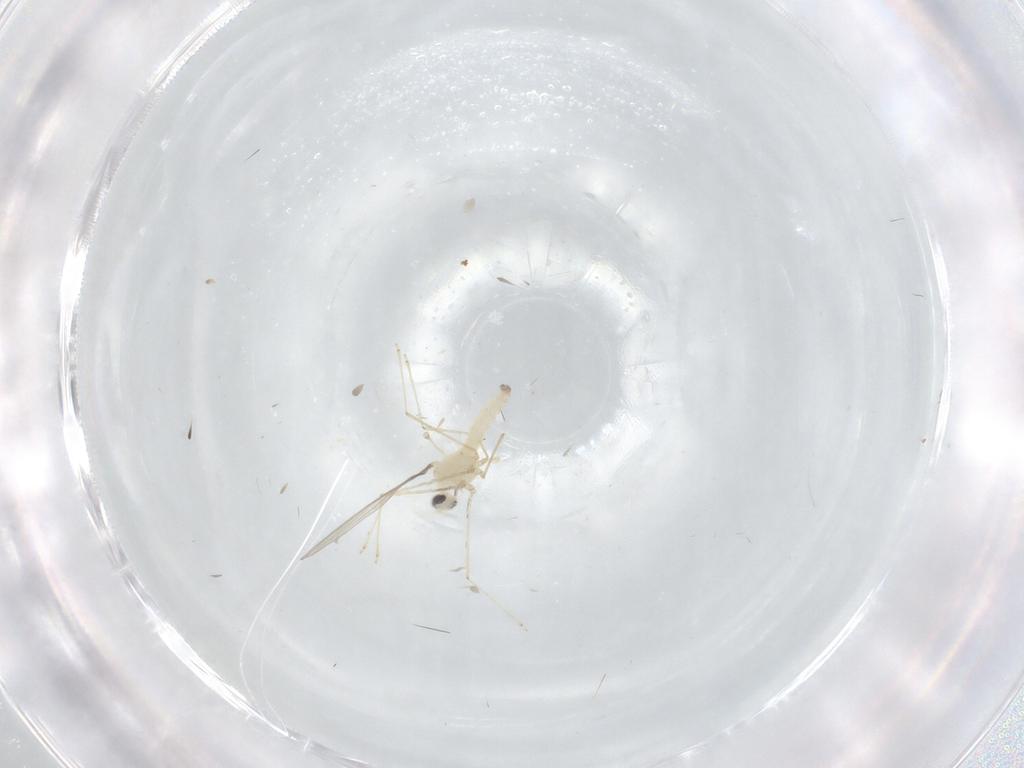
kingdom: Animalia
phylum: Arthropoda
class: Insecta
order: Diptera
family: Cecidomyiidae
